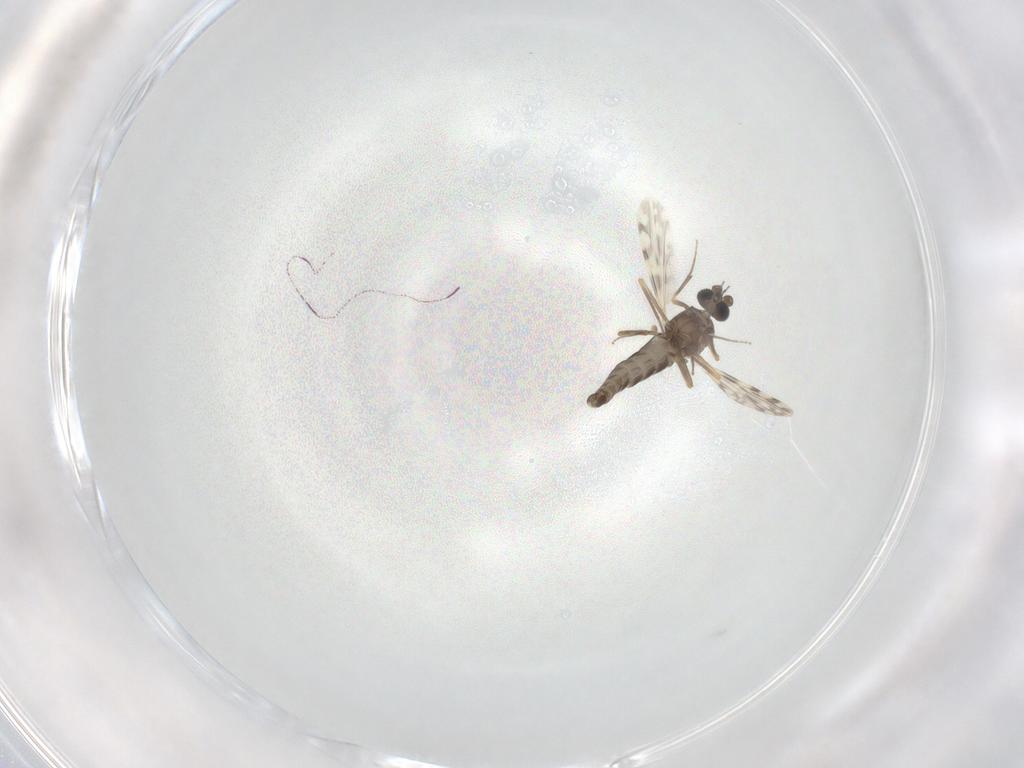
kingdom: Animalia
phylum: Arthropoda
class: Insecta
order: Diptera
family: Ceratopogonidae
